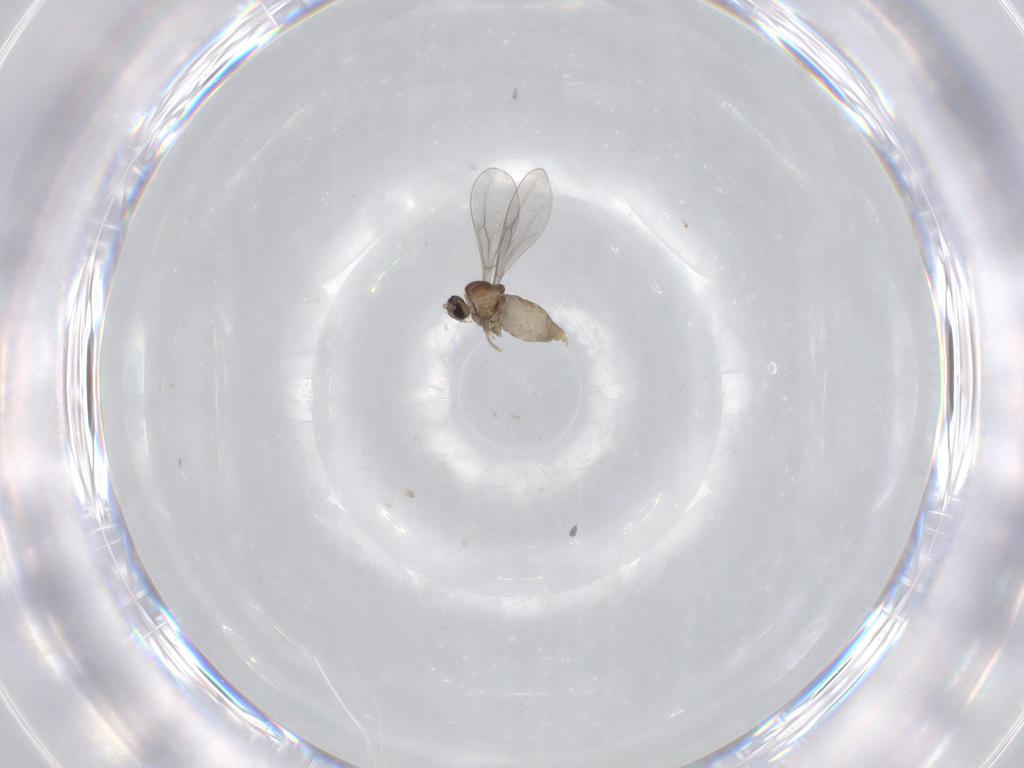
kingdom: Animalia
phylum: Arthropoda
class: Insecta
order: Diptera
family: Cecidomyiidae
